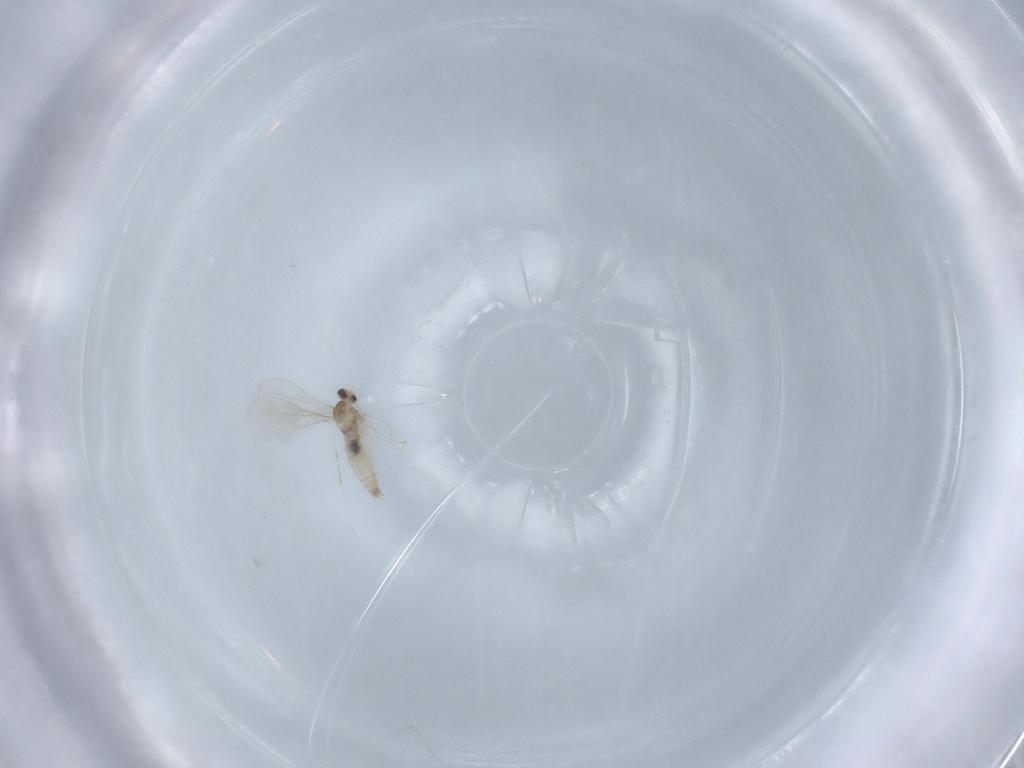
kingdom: Animalia
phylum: Arthropoda
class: Insecta
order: Diptera
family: Cecidomyiidae
